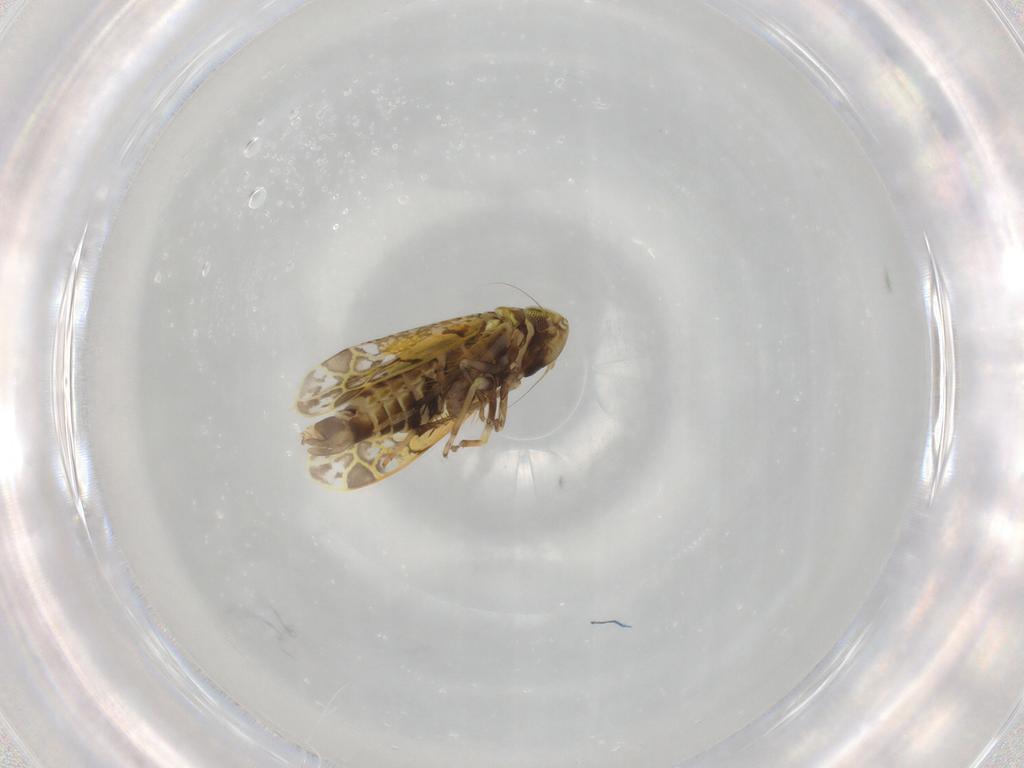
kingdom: Animalia
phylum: Arthropoda
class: Insecta
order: Hemiptera
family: Cicadellidae
